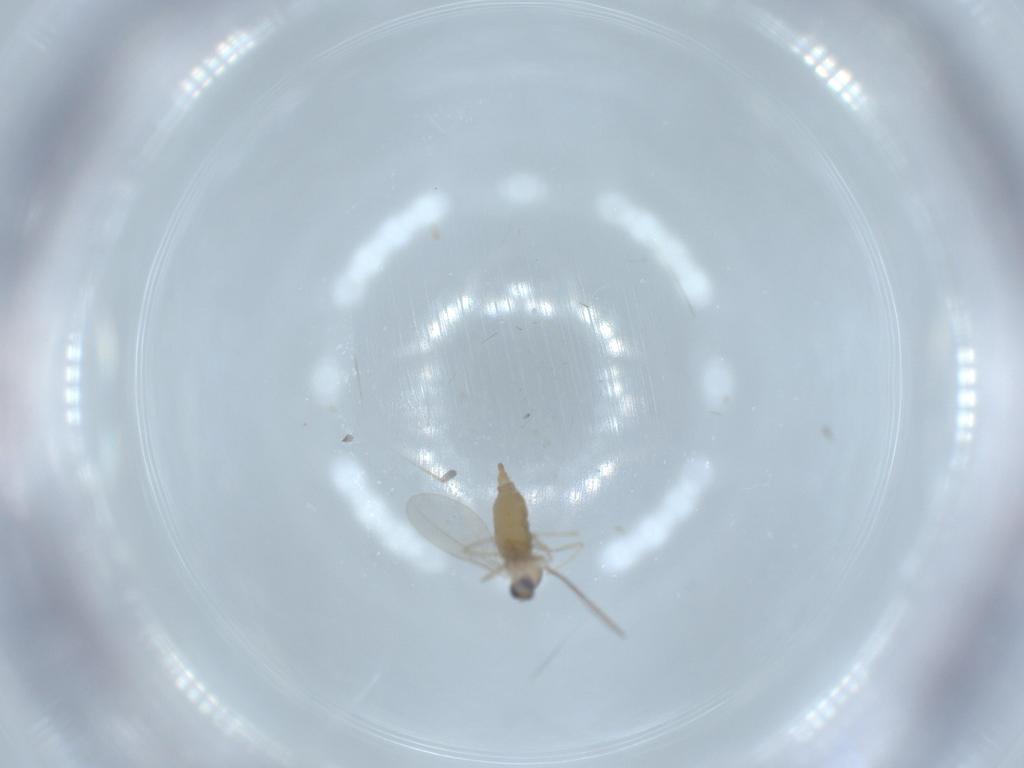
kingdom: Animalia
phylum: Arthropoda
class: Insecta
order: Diptera
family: Cecidomyiidae
